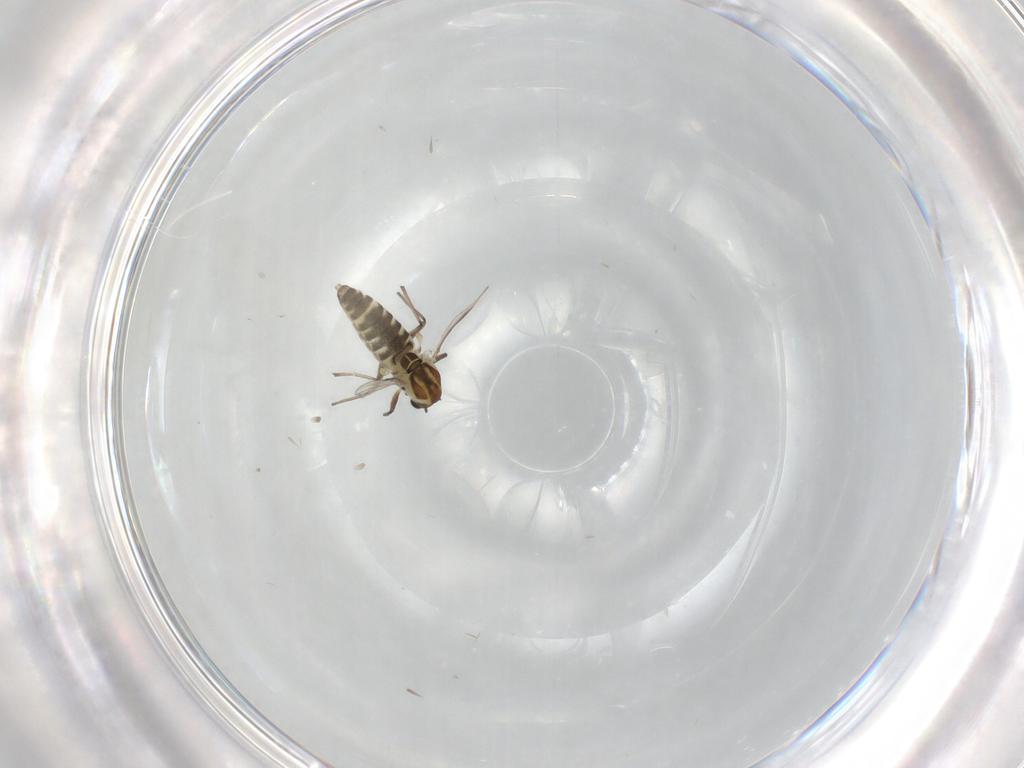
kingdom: Animalia
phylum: Arthropoda
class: Insecta
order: Diptera
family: Chironomidae
